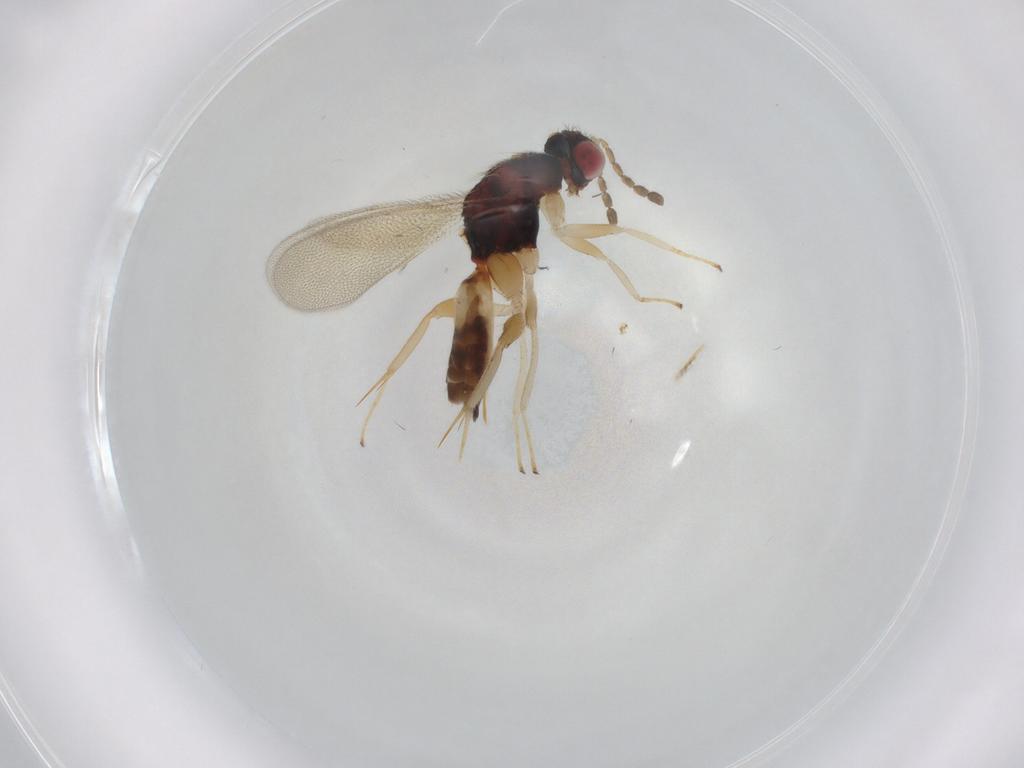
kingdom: Animalia
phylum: Arthropoda
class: Insecta
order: Hymenoptera
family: Eulophidae
